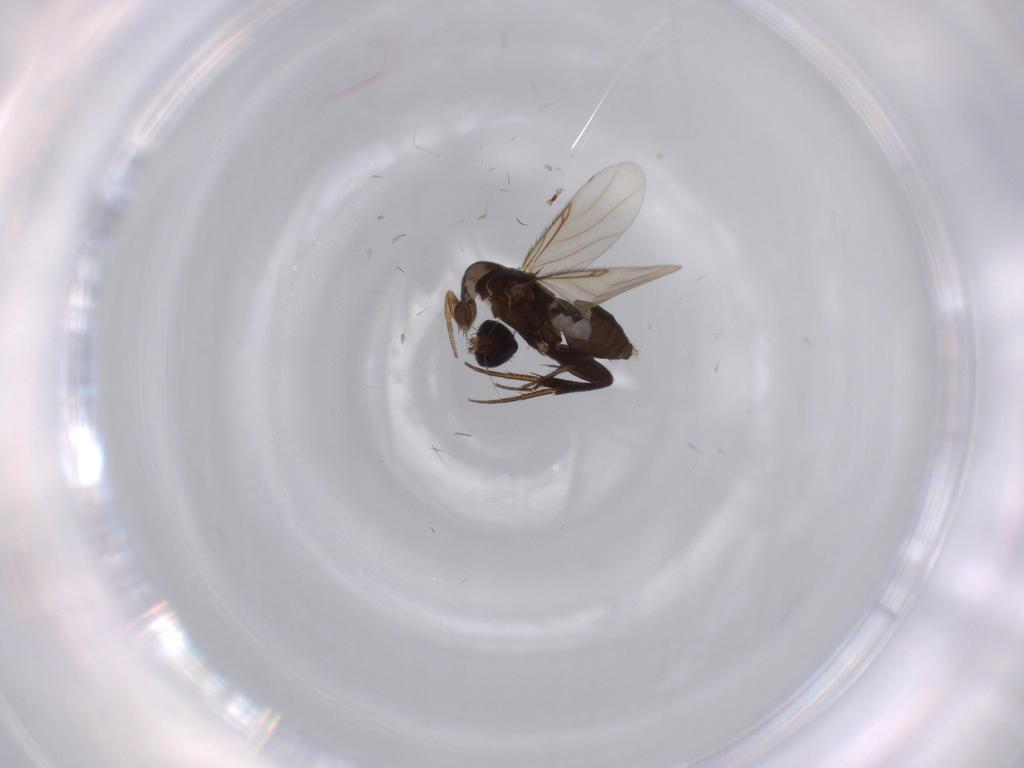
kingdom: Animalia
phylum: Arthropoda
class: Insecta
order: Diptera
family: Phoridae
